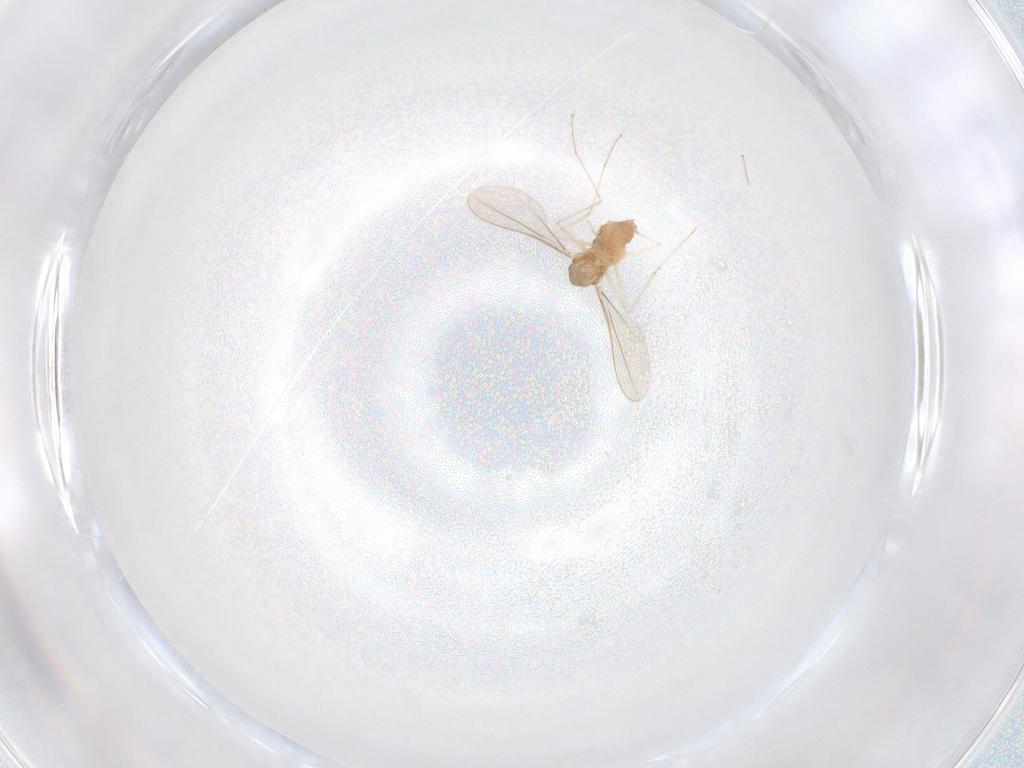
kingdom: Animalia
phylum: Arthropoda
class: Insecta
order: Diptera
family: Cecidomyiidae
